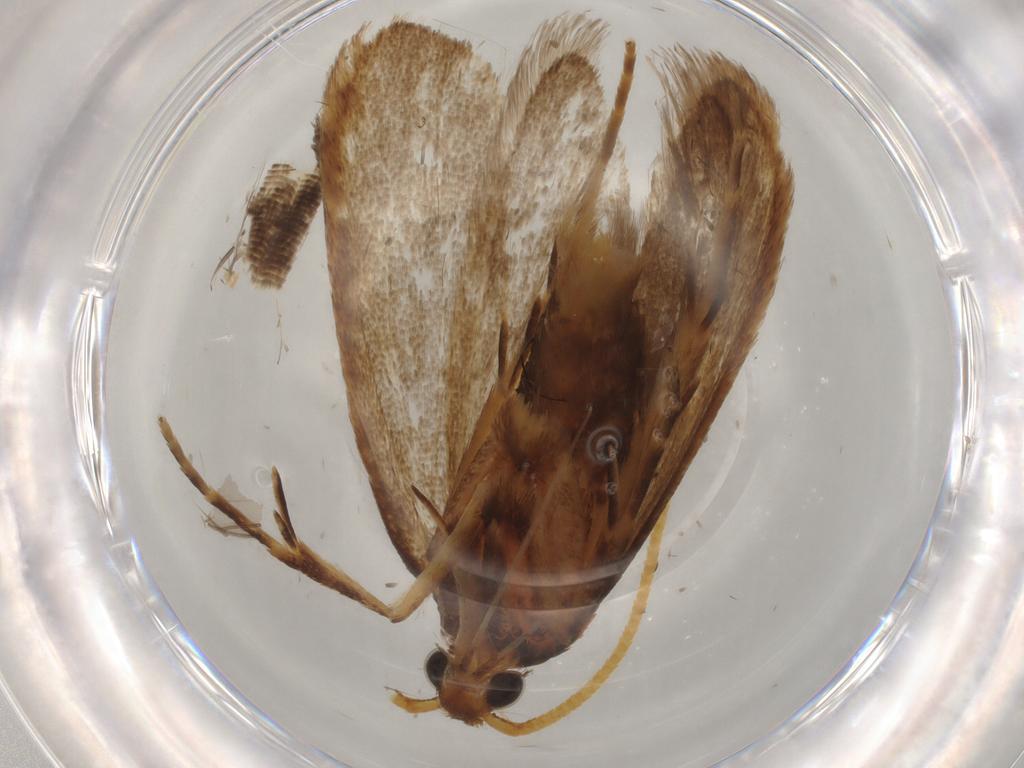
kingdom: Animalia
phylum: Arthropoda
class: Insecta
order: Lepidoptera
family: Lecithoceridae
